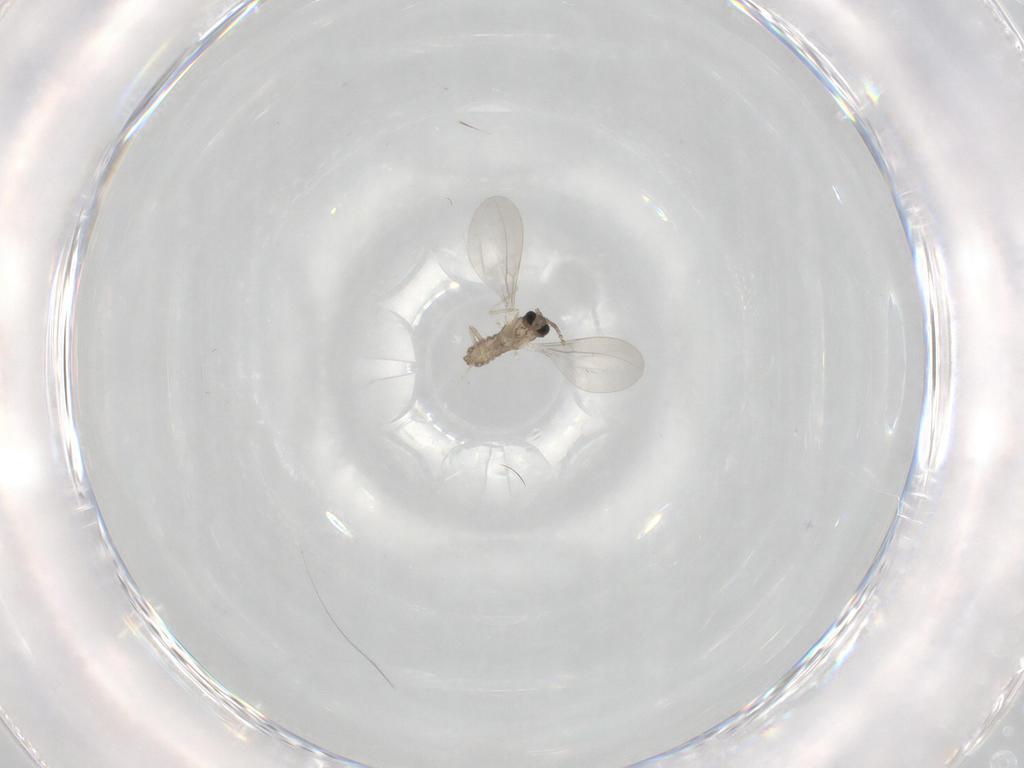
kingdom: Animalia
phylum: Arthropoda
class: Insecta
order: Diptera
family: Cecidomyiidae
